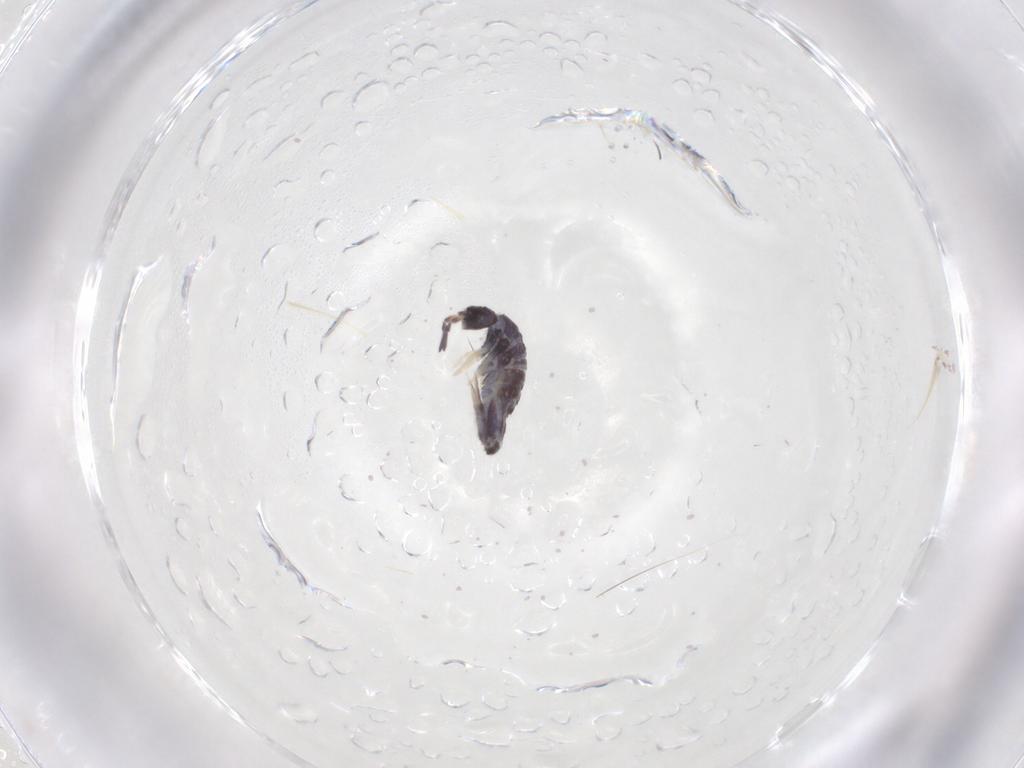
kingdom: Animalia
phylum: Arthropoda
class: Collembola
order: Entomobryomorpha
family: Entomobryidae
